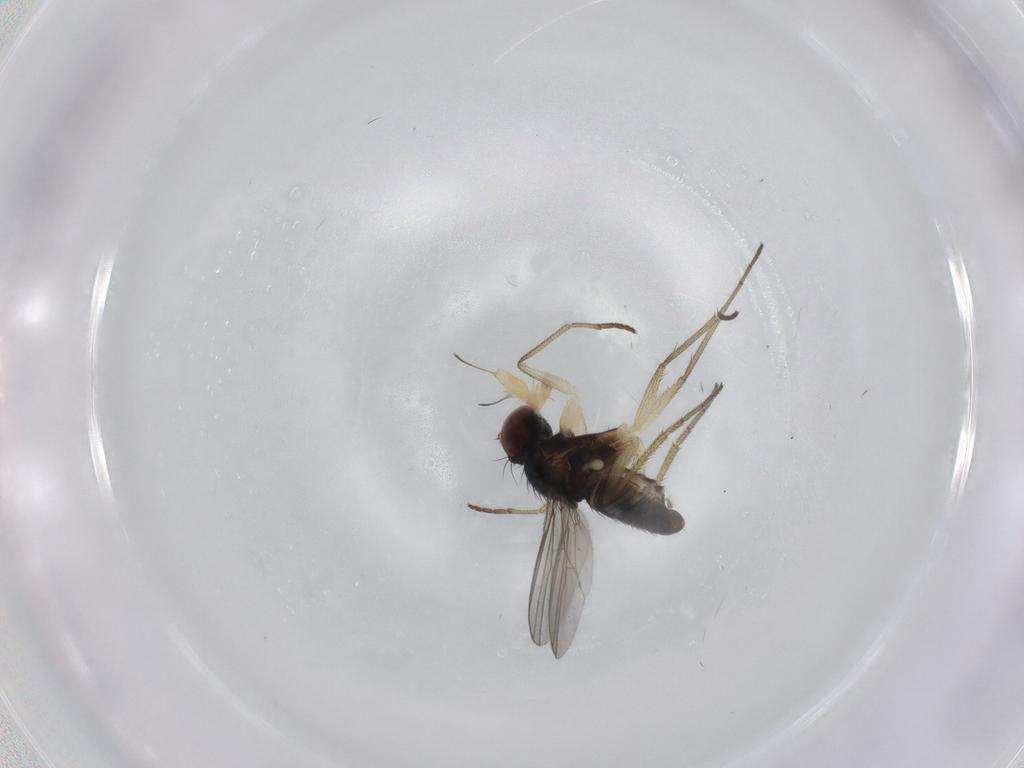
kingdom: Animalia
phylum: Arthropoda
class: Insecta
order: Diptera
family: Dolichopodidae
